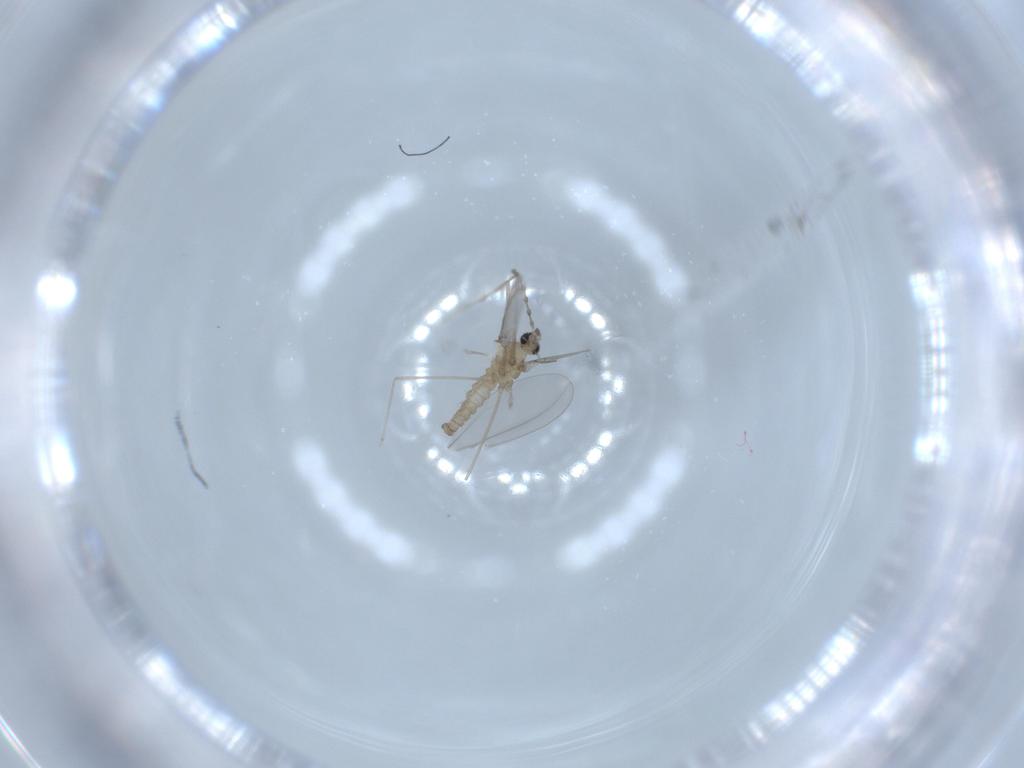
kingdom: Animalia
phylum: Arthropoda
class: Insecta
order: Diptera
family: Cecidomyiidae
